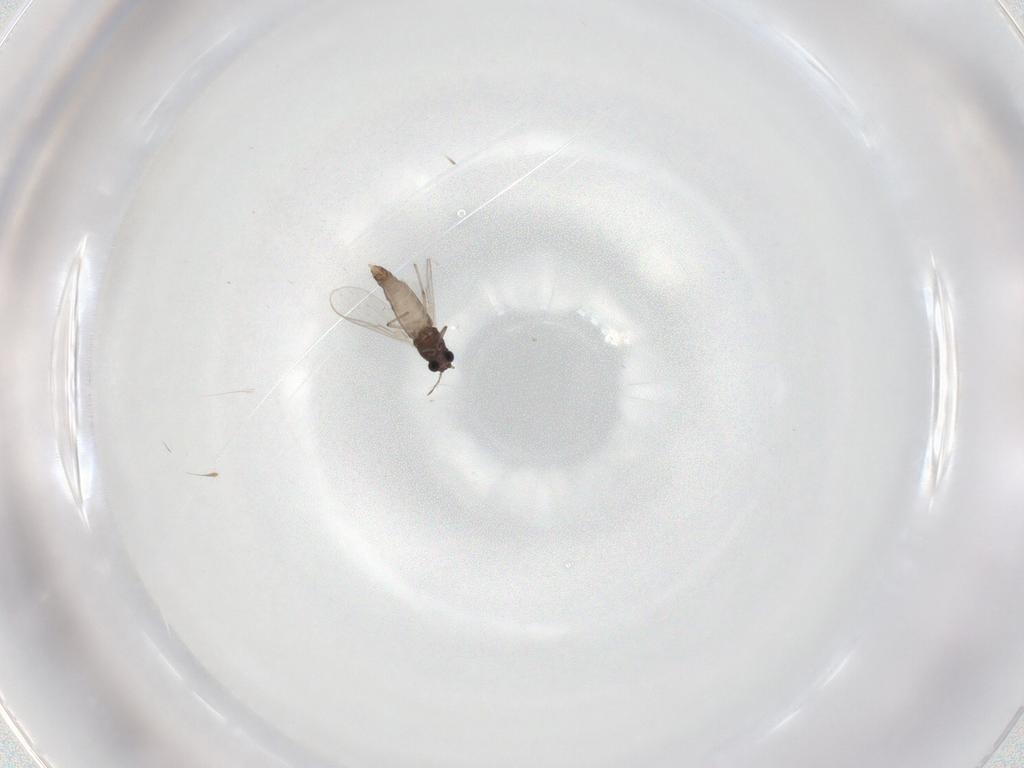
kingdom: Animalia
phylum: Arthropoda
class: Insecta
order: Diptera
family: Chironomidae
